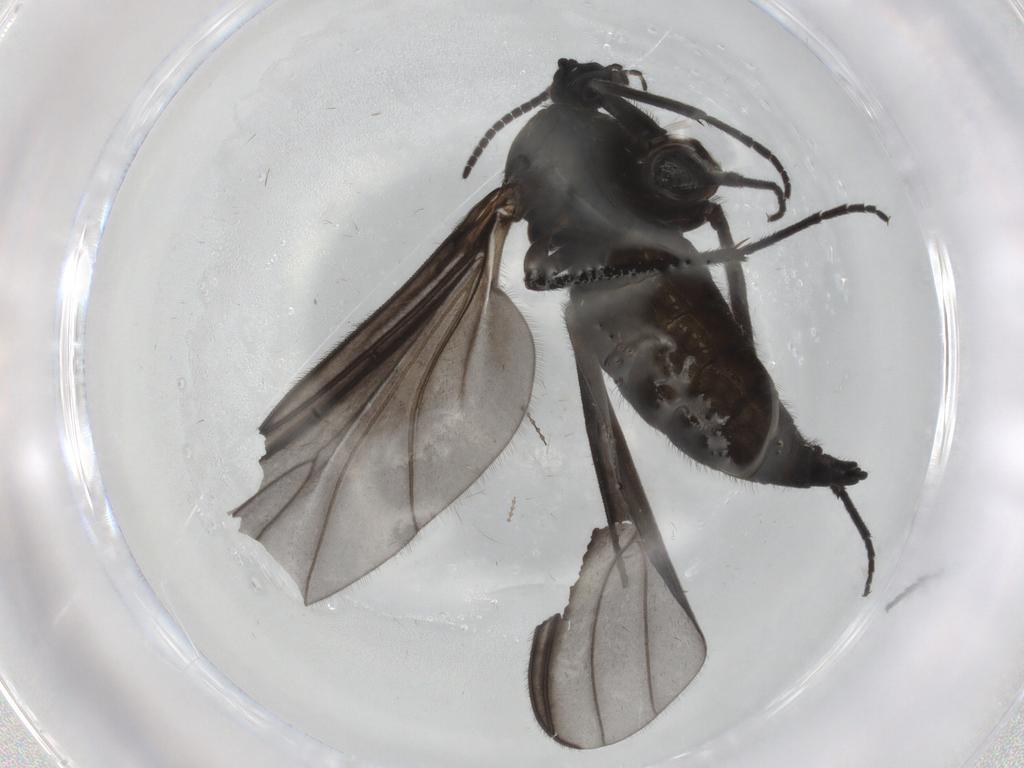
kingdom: Animalia
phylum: Arthropoda
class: Insecta
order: Diptera
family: Sciaridae
